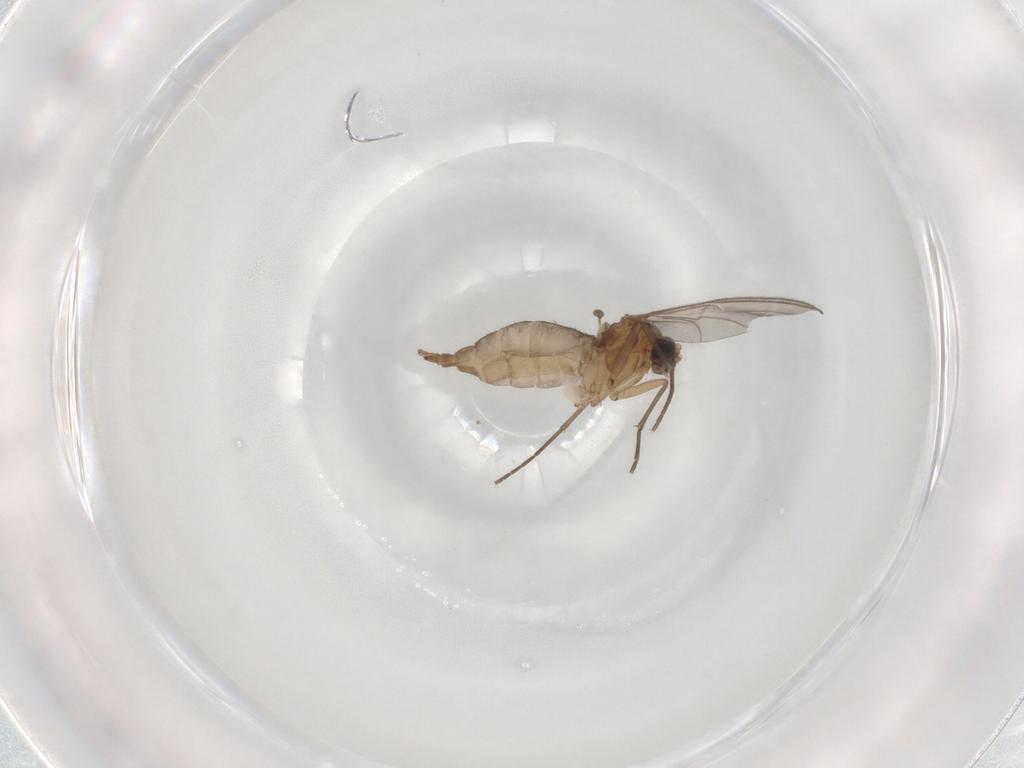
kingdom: Animalia
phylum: Arthropoda
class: Insecta
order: Diptera
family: Sciaridae
